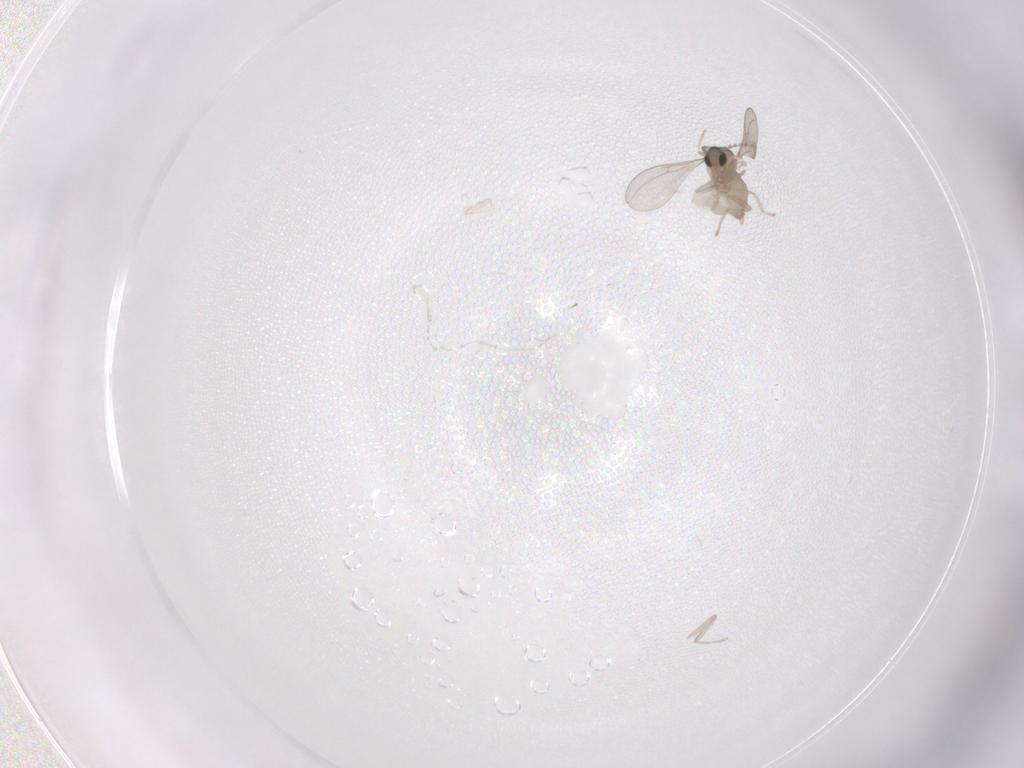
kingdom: Animalia
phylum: Arthropoda
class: Insecta
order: Diptera
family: Cecidomyiidae
